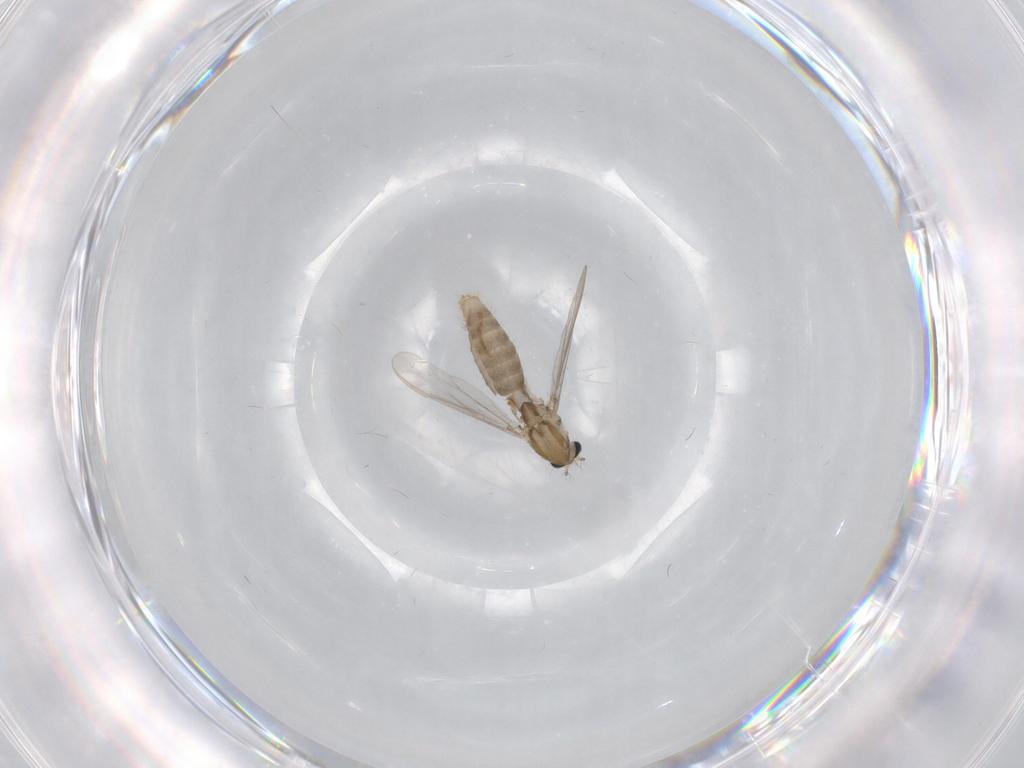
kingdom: Animalia
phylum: Arthropoda
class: Insecta
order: Diptera
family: Chironomidae
